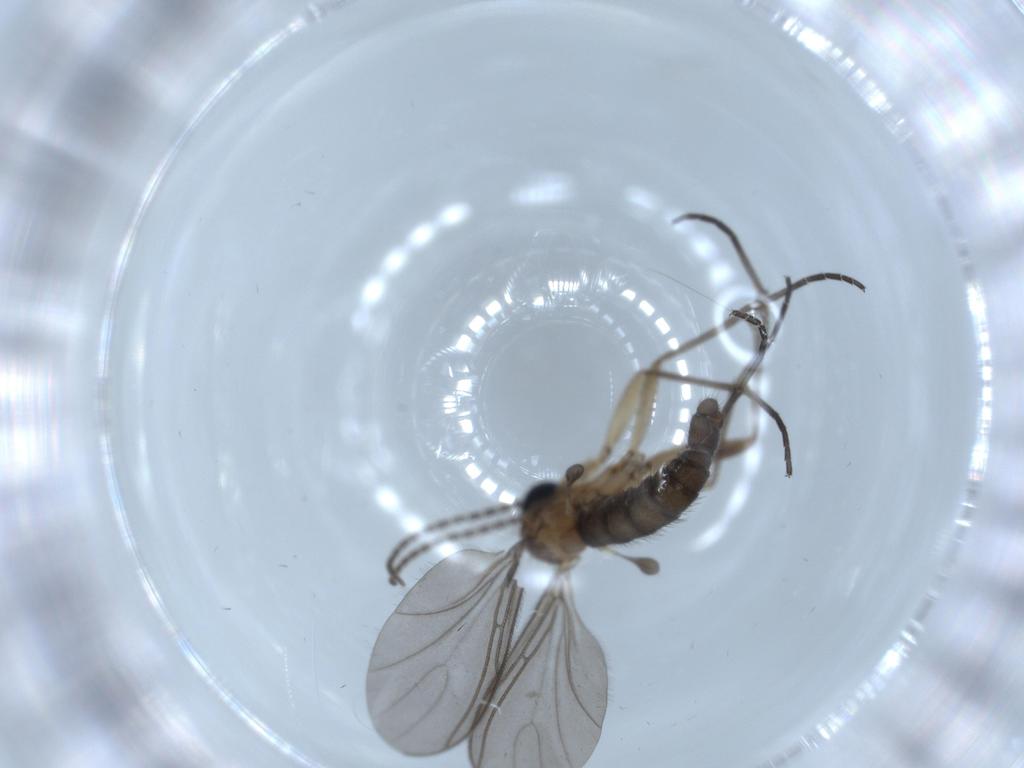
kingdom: Animalia
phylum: Arthropoda
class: Insecta
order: Diptera
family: Sciaridae
